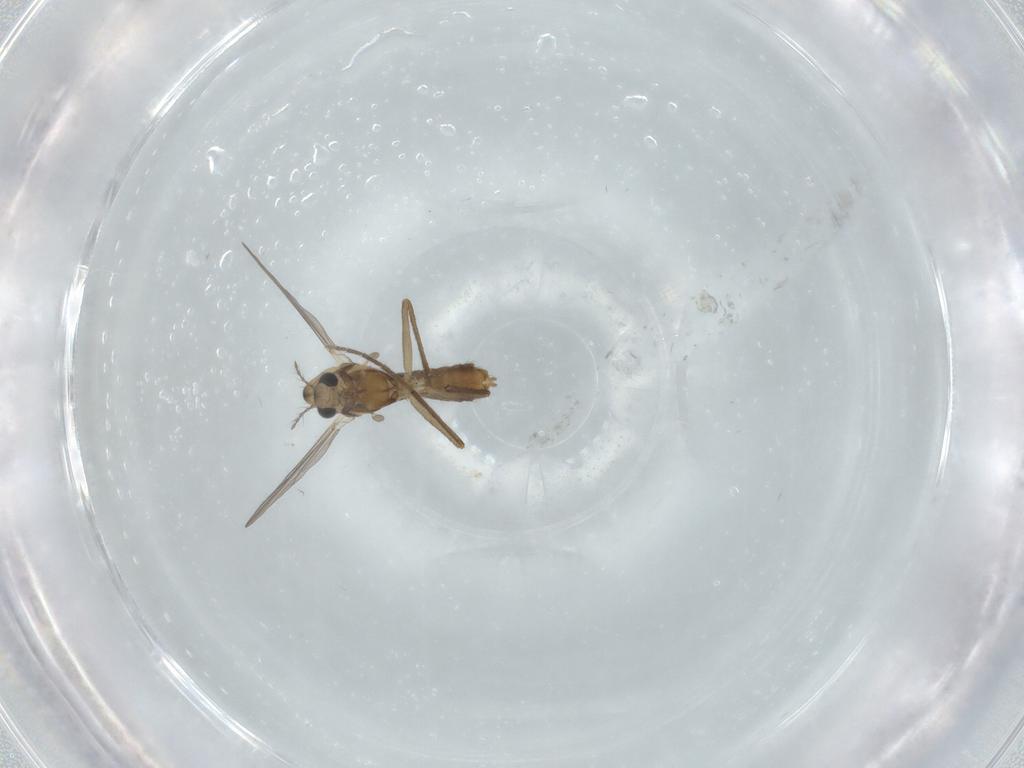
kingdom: Animalia
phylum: Arthropoda
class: Insecta
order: Diptera
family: Chironomidae
